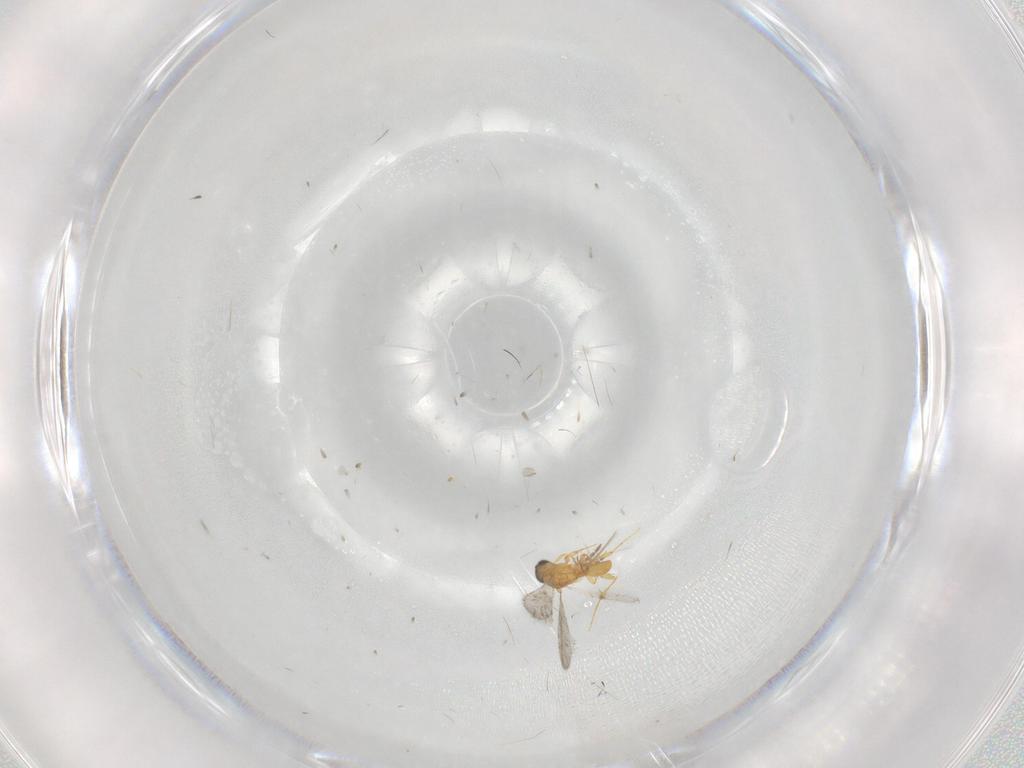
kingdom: Animalia
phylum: Arthropoda
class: Insecta
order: Hymenoptera
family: Platygastridae
